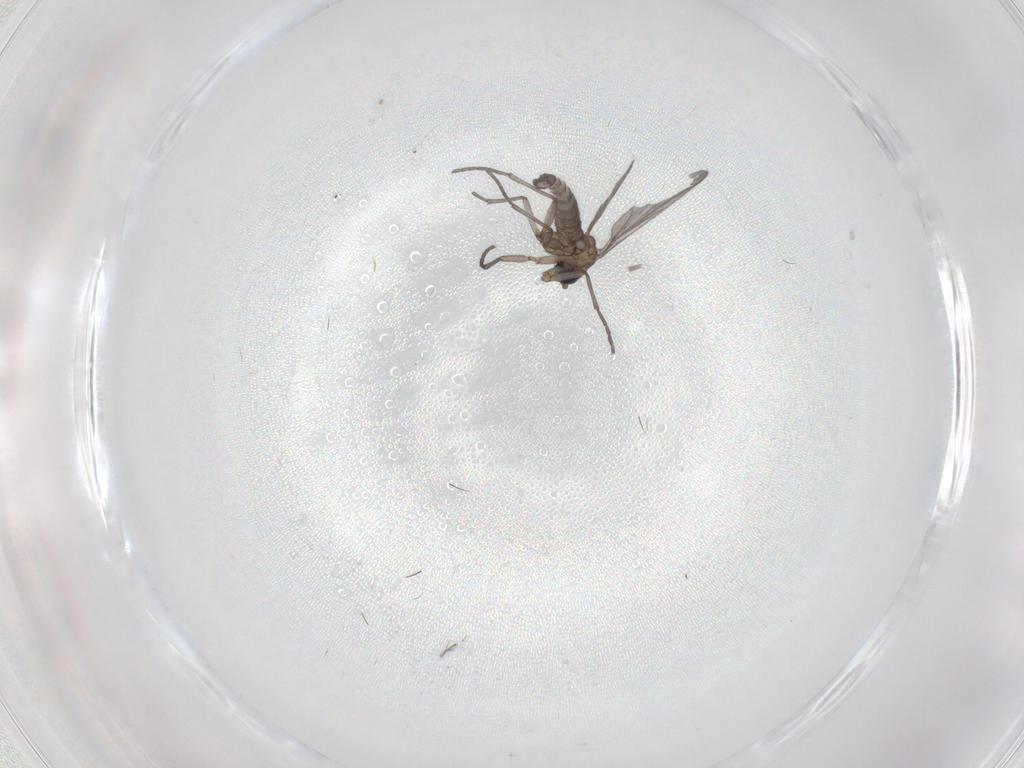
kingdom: Animalia
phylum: Arthropoda
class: Insecta
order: Diptera
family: Sciaridae
